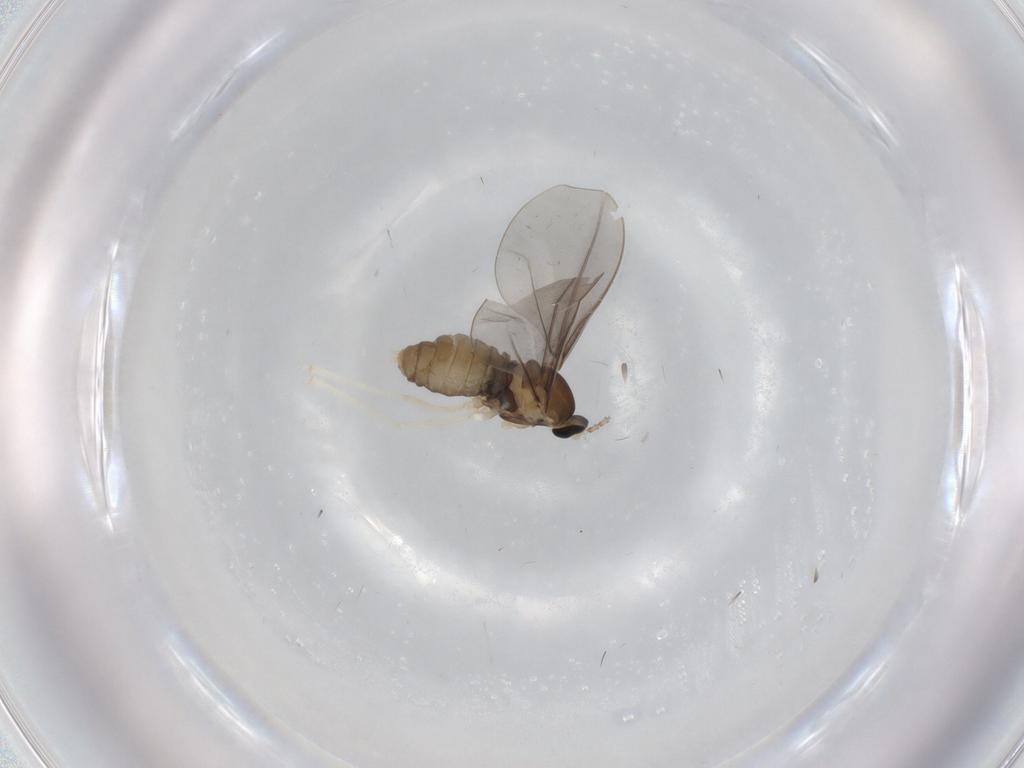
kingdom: Animalia
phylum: Arthropoda
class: Insecta
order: Diptera
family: Cecidomyiidae
